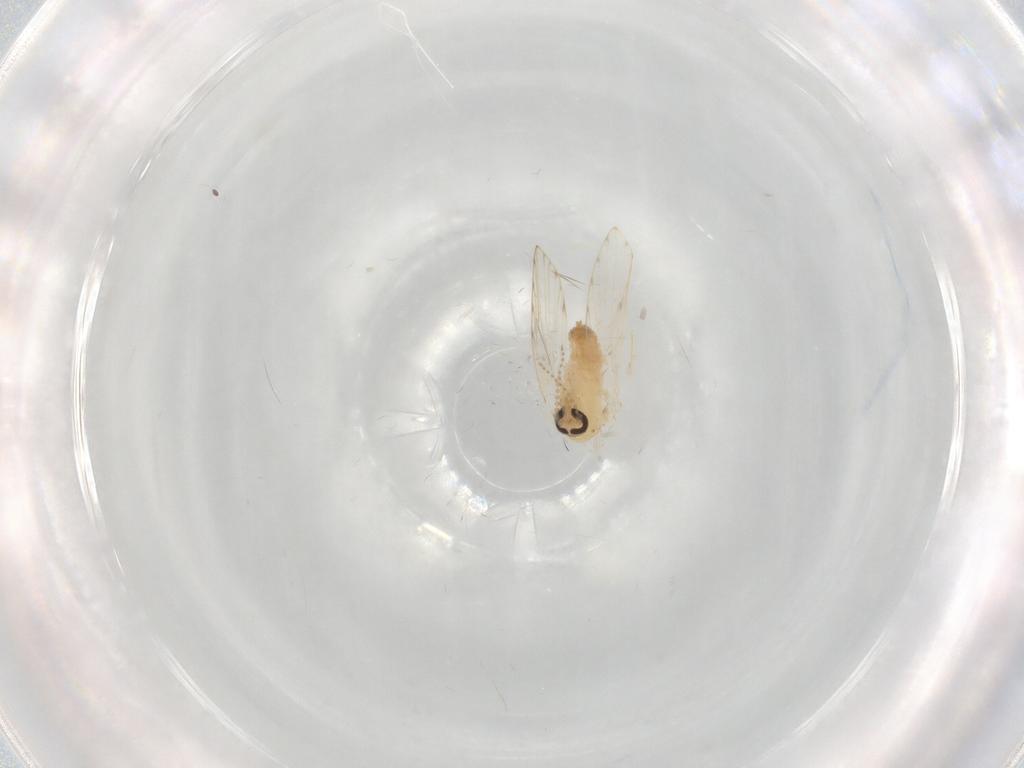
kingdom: Animalia
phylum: Arthropoda
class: Insecta
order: Diptera
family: Psychodidae
